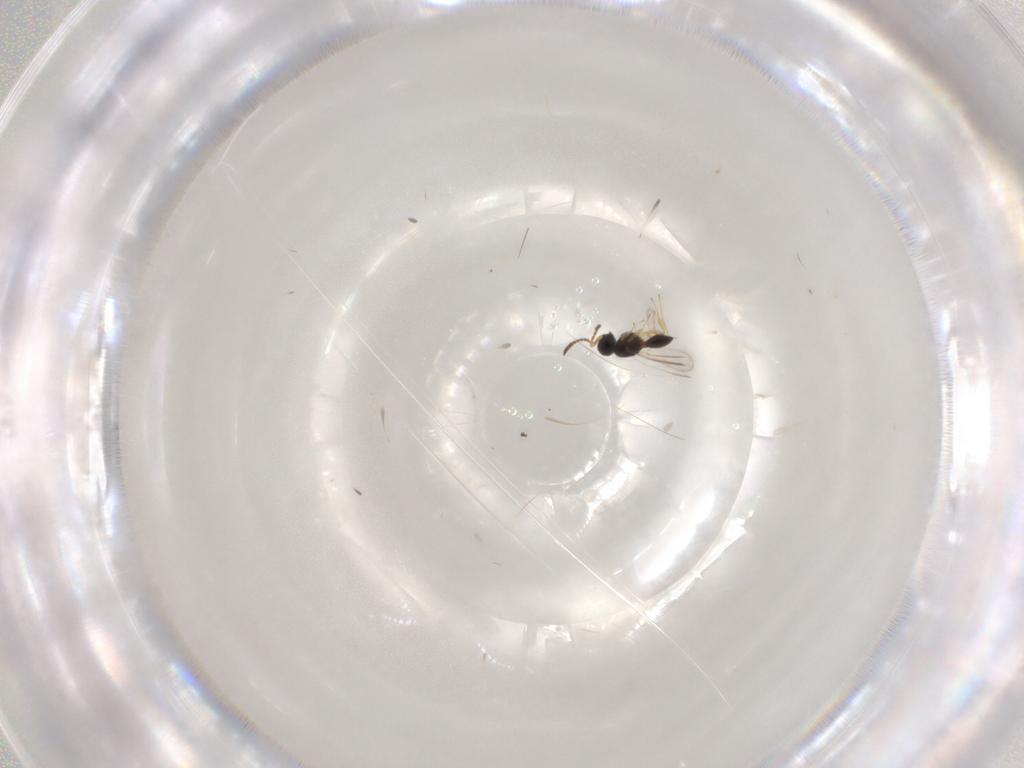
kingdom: Animalia
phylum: Arthropoda
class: Insecta
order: Hymenoptera
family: Scelionidae
